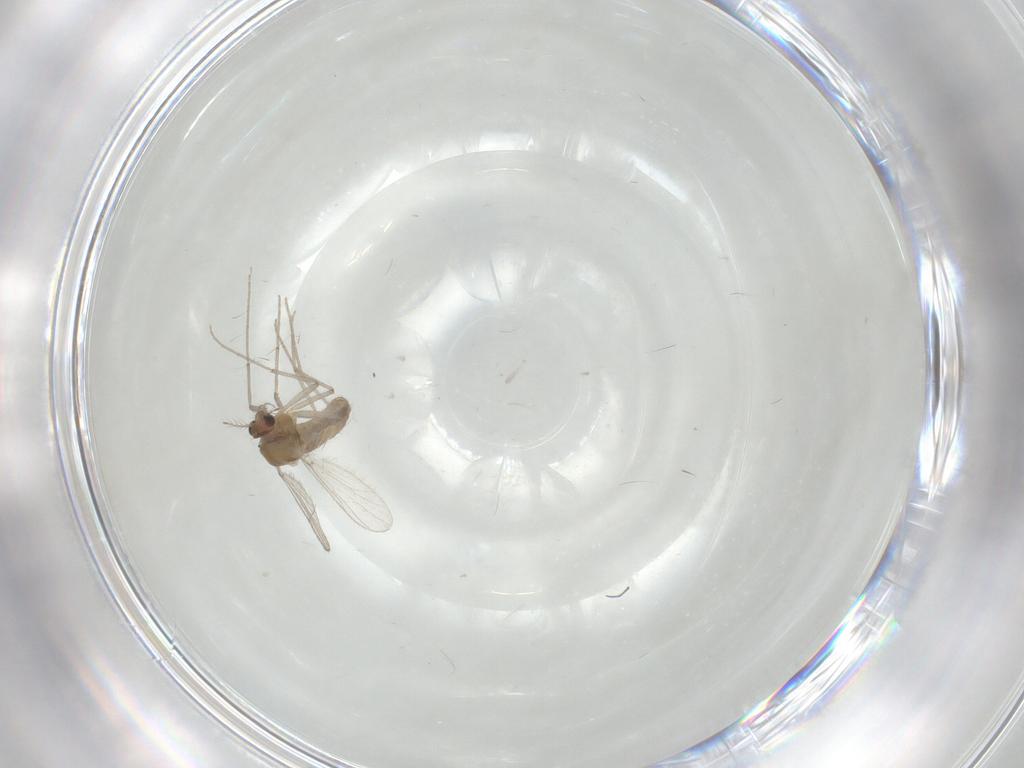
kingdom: Animalia
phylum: Arthropoda
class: Insecta
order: Diptera
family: Chironomidae
